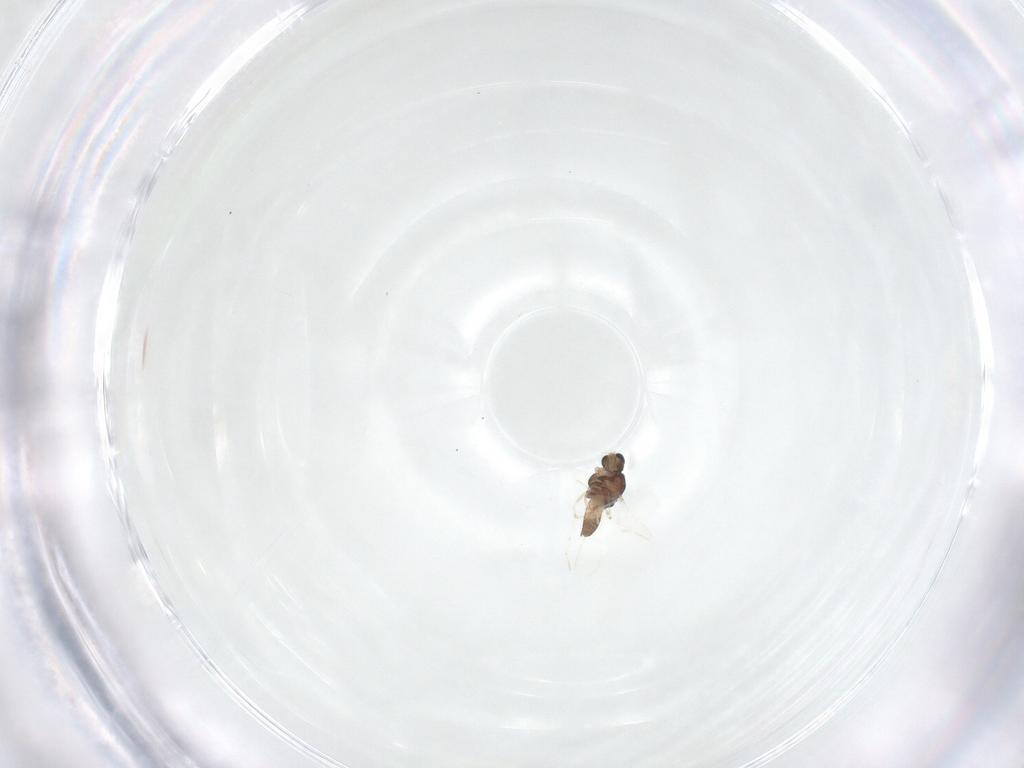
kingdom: Animalia
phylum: Arthropoda
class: Insecta
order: Diptera
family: Chironomidae
